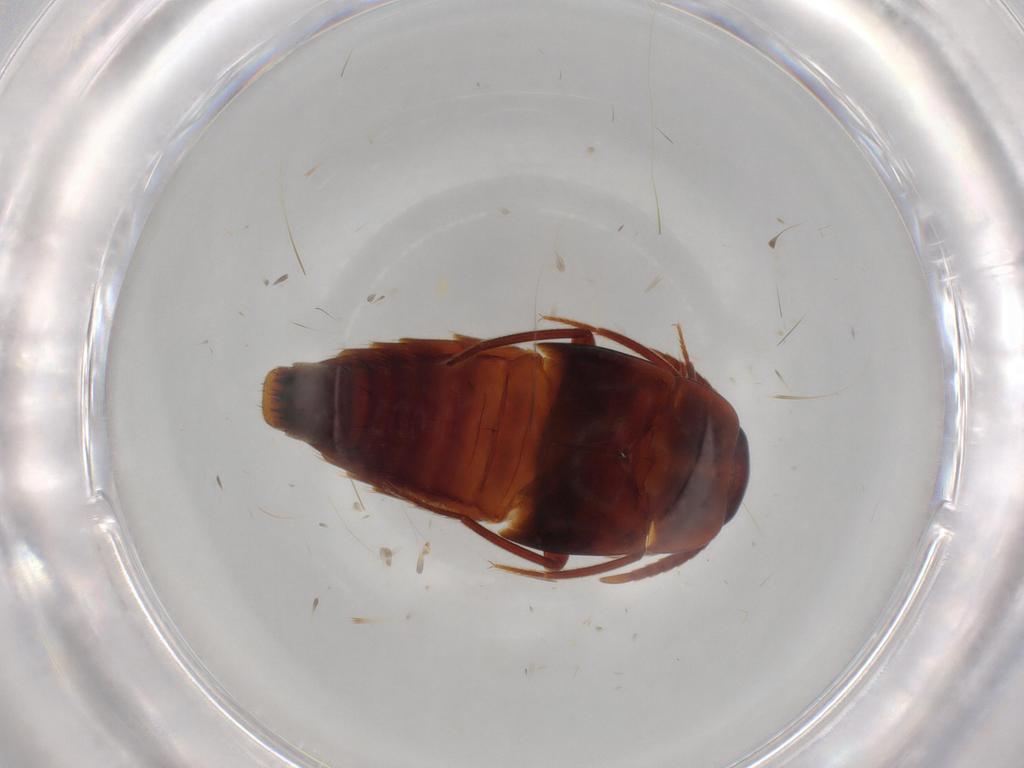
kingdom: Animalia
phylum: Arthropoda
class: Insecta
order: Coleoptera
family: Staphylinidae
